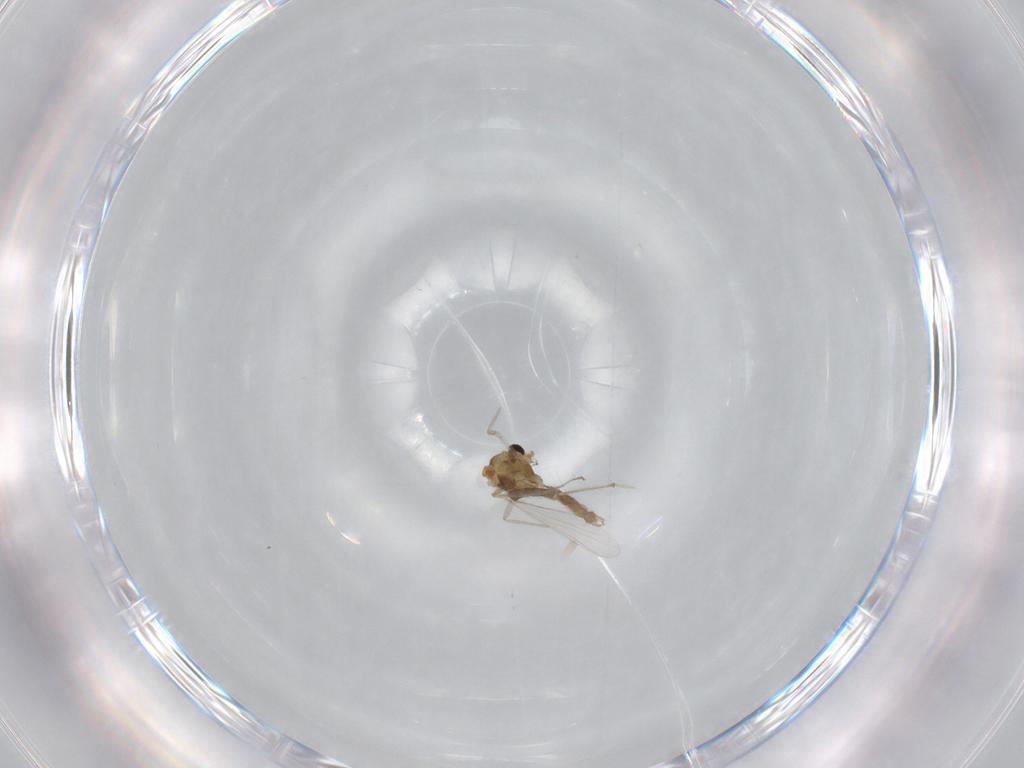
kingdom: Animalia
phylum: Arthropoda
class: Insecta
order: Diptera
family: Chironomidae
